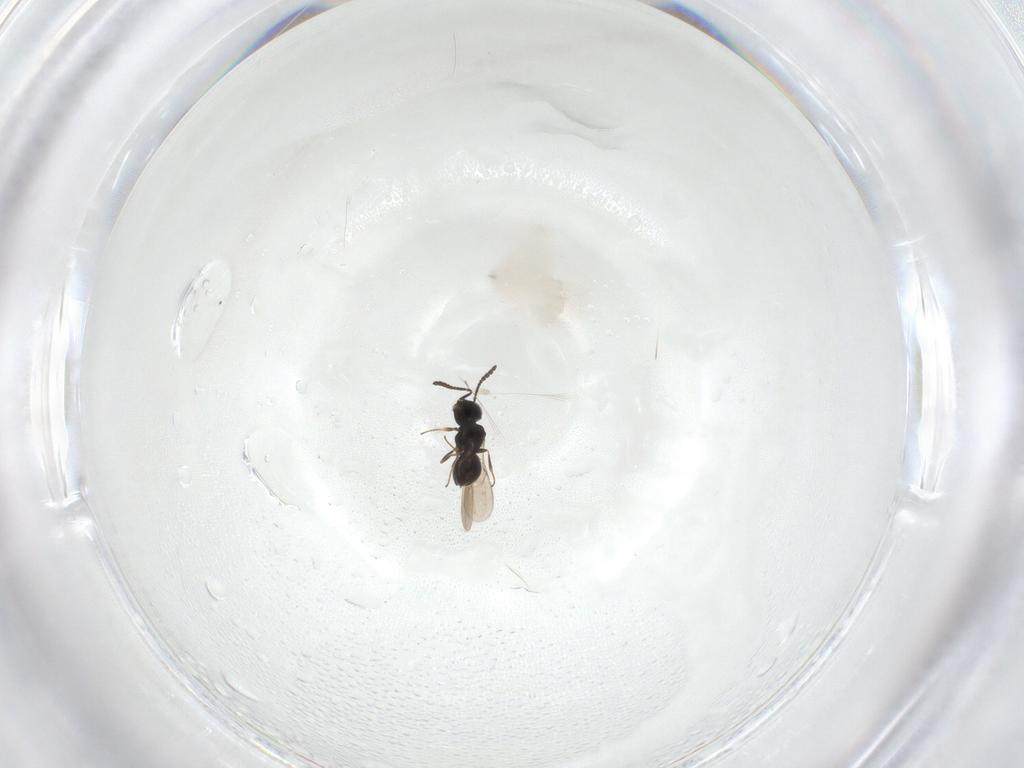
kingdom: Animalia
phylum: Arthropoda
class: Insecta
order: Hymenoptera
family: Scelionidae
